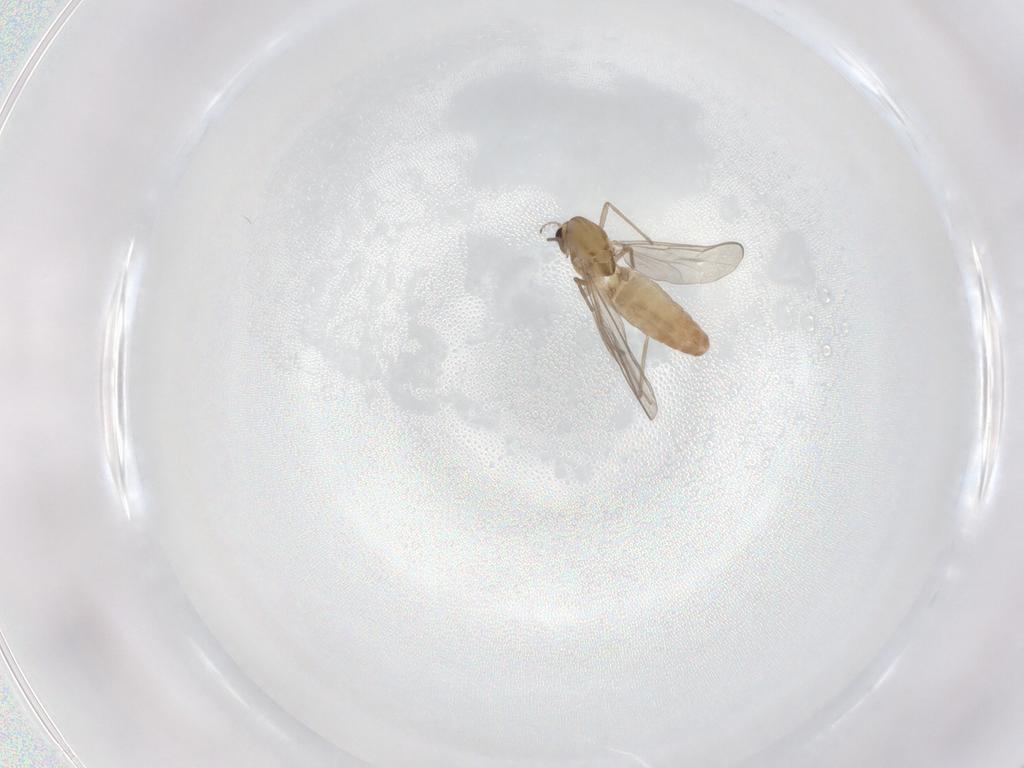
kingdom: Animalia
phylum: Arthropoda
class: Insecta
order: Diptera
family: Chironomidae
